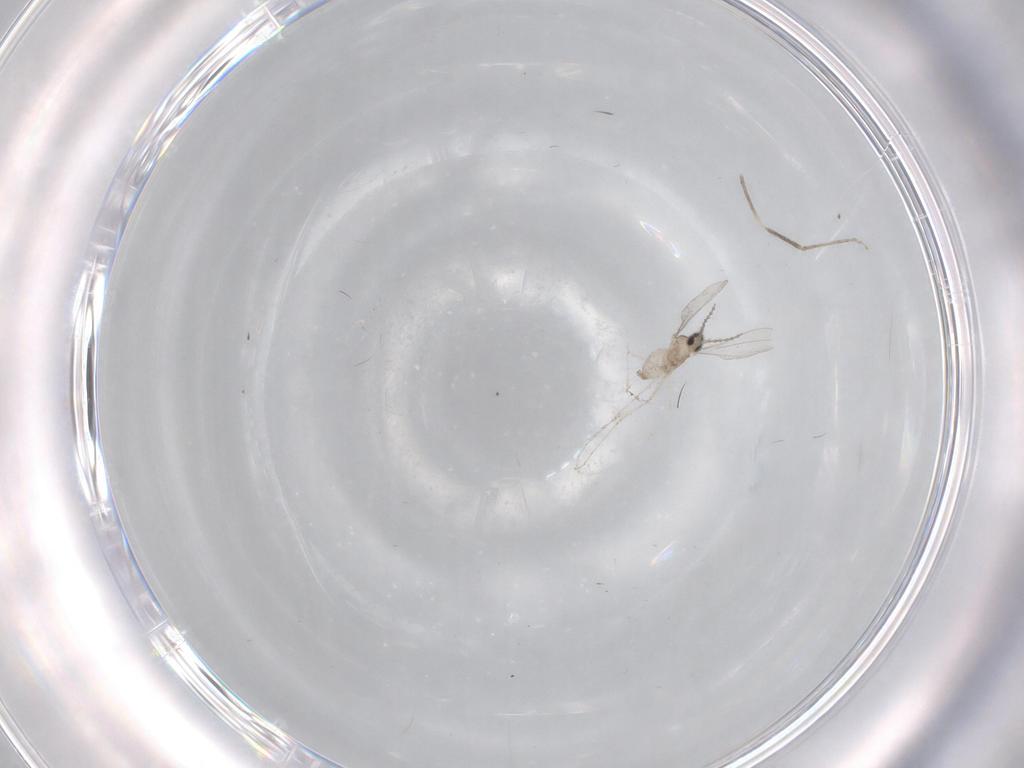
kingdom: Animalia
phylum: Arthropoda
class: Insecta
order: Diptera
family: Cecidomyiidae
